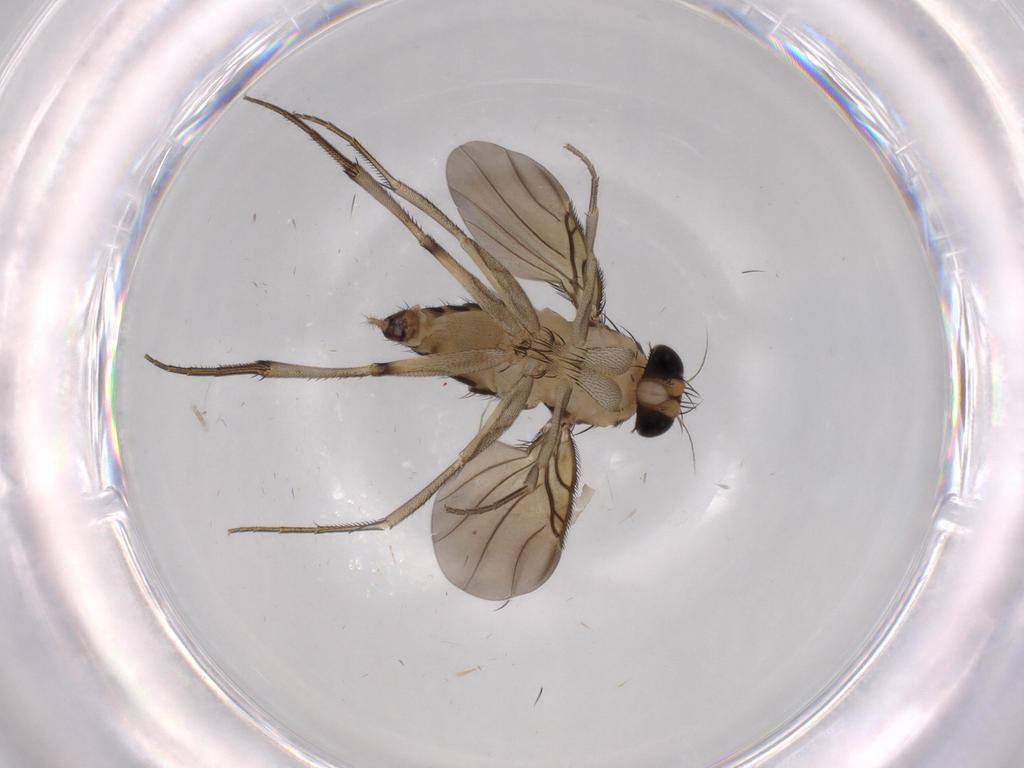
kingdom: Animalia
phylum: Arthropoda
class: Insecta
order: Diptera
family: Phoridae
